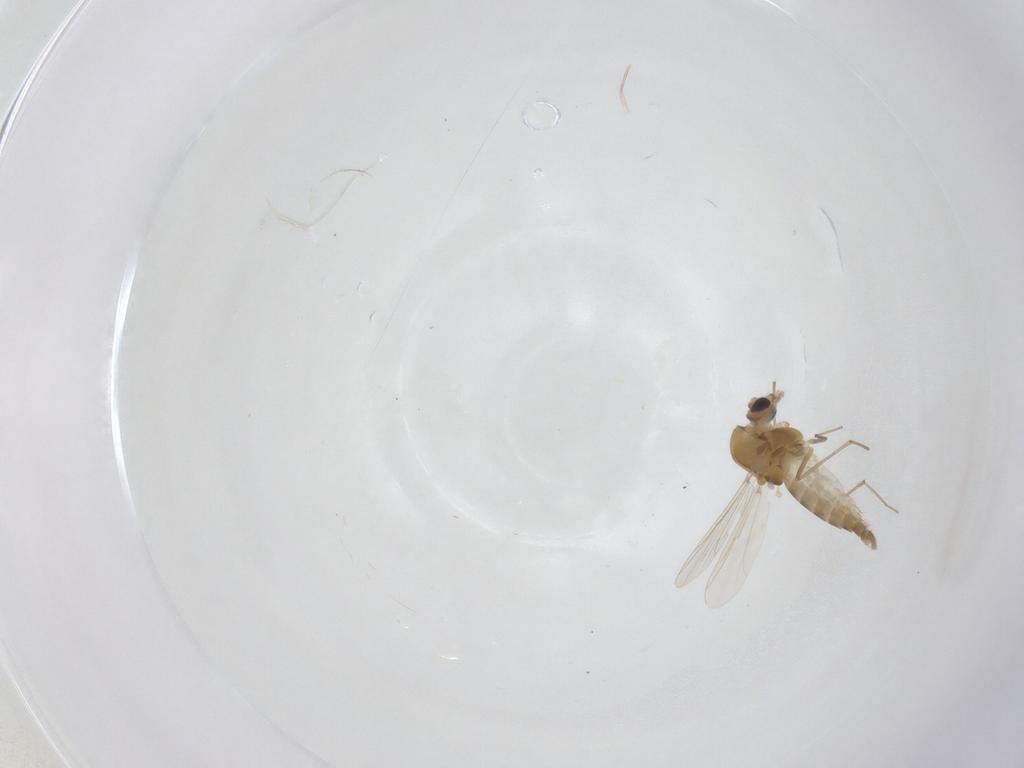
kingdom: Animalia
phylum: Arthropoda
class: Insecta
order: Diptera
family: Chironomidae
